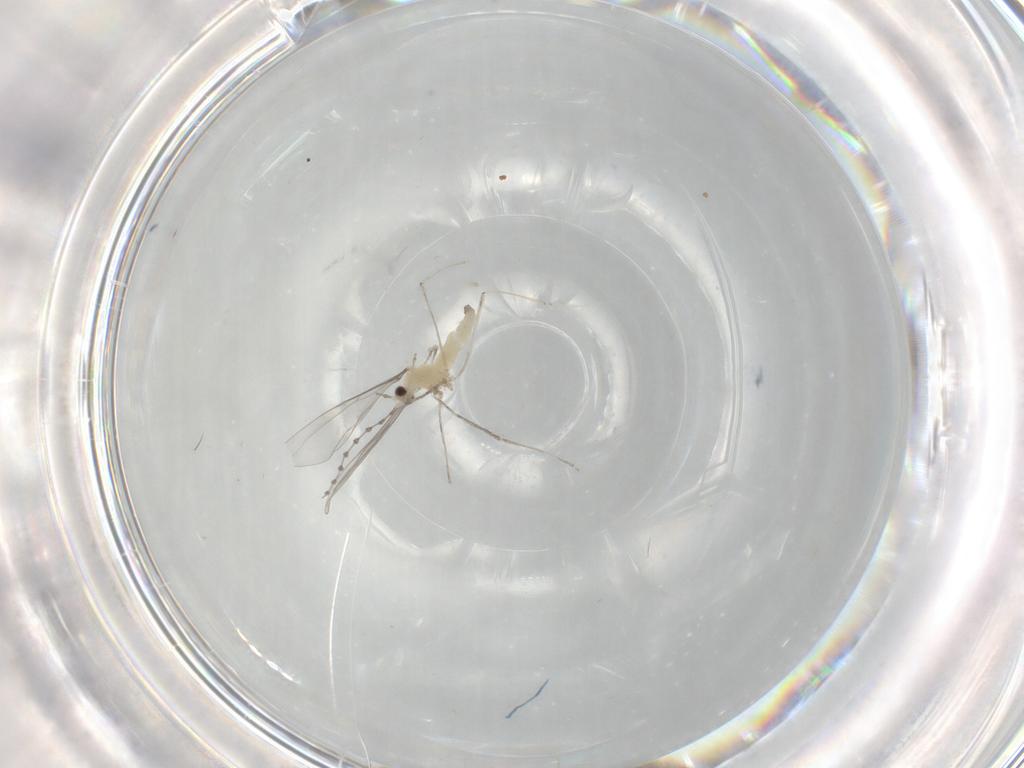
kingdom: Animalia
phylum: Arthropoda
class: Insecta
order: Diptera
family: Cecidomyiidae
